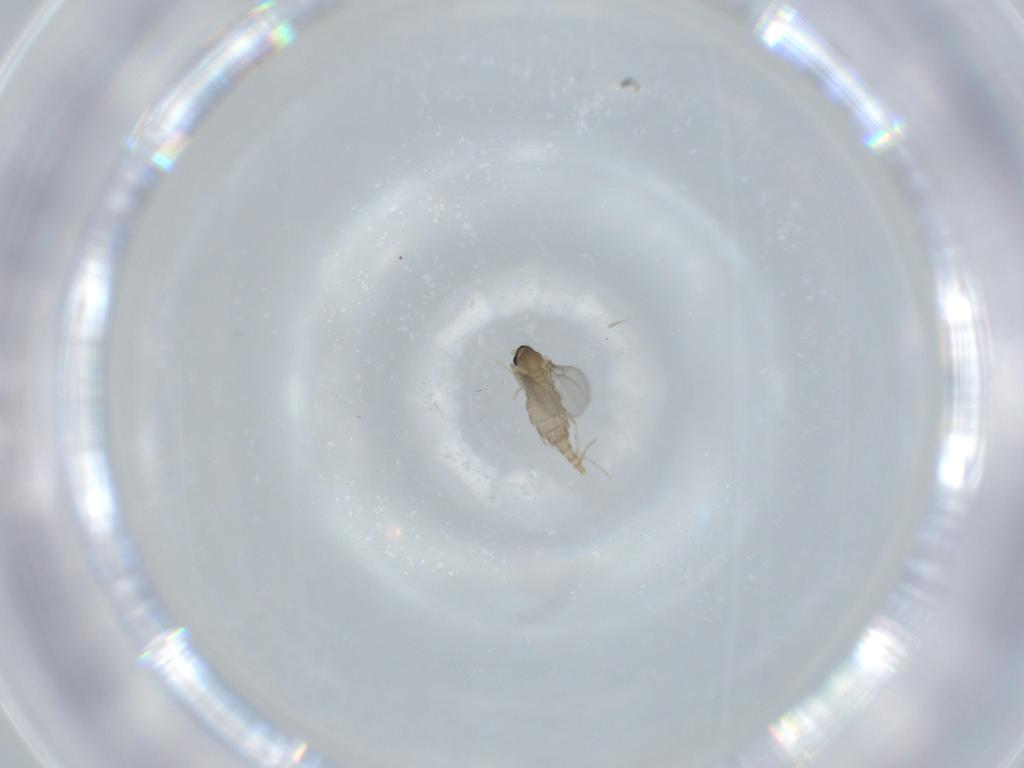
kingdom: Animalia
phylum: Arthropoda
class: Insecta
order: Diptera
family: Cecidomyiidae
